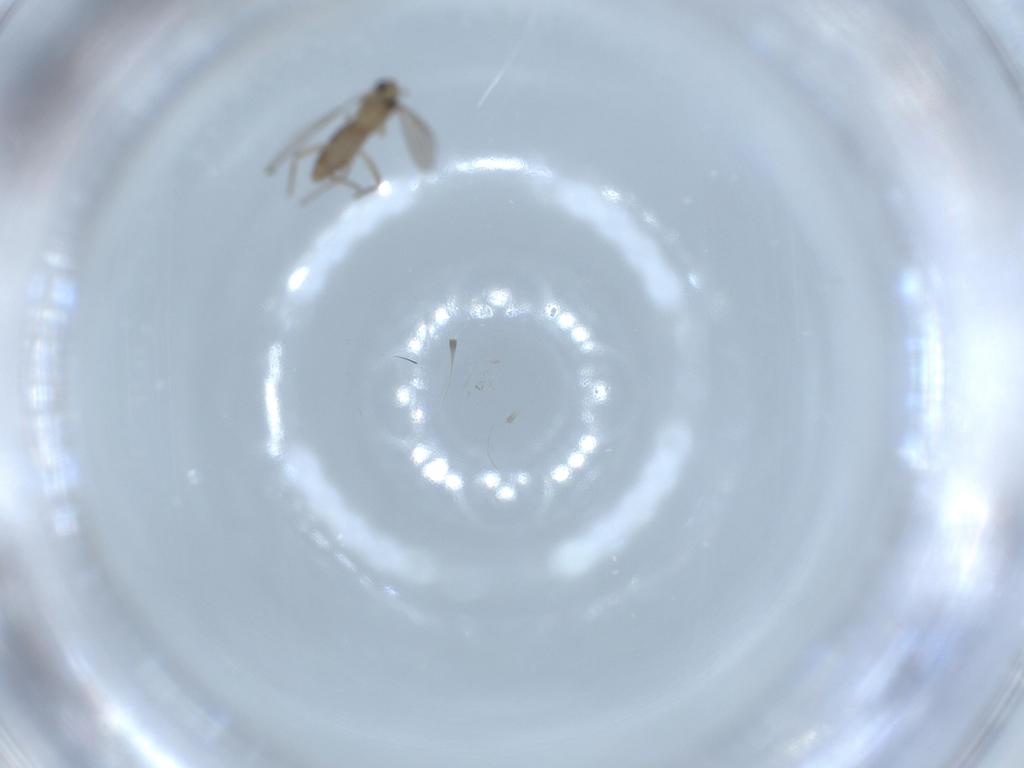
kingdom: Animalia
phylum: Arthropoda
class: Insecta
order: Diptera
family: Chironomidae
